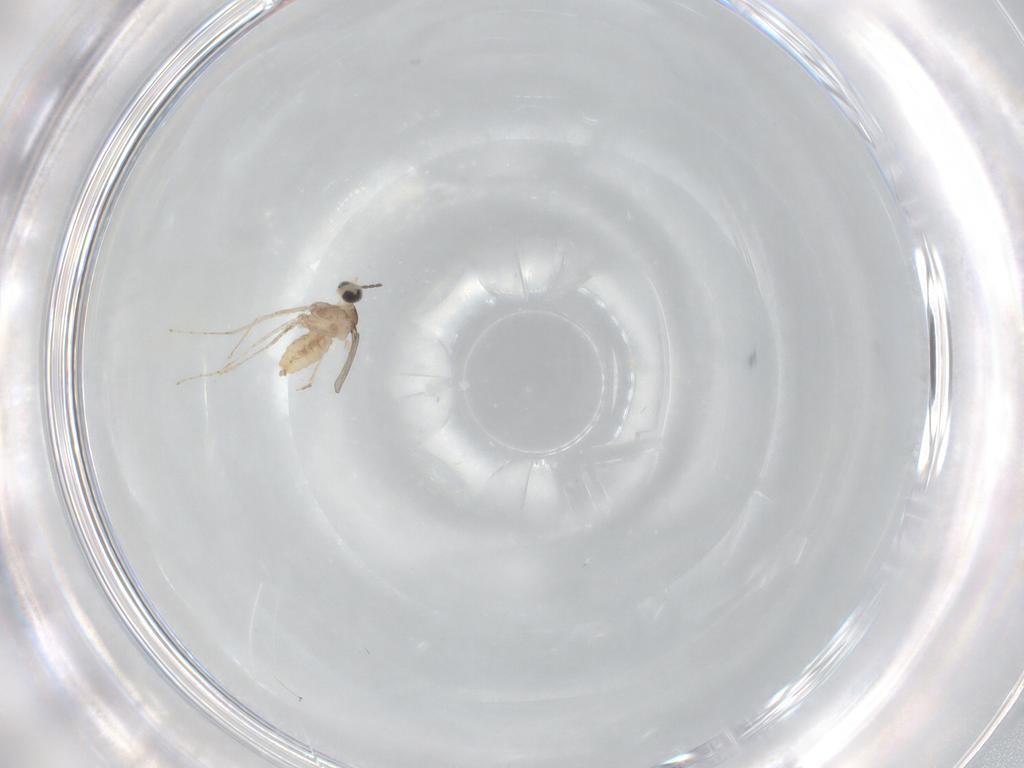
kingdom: Animalia
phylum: Arthropoda
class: Insecta
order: Diptera
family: Cecidomyiidae
